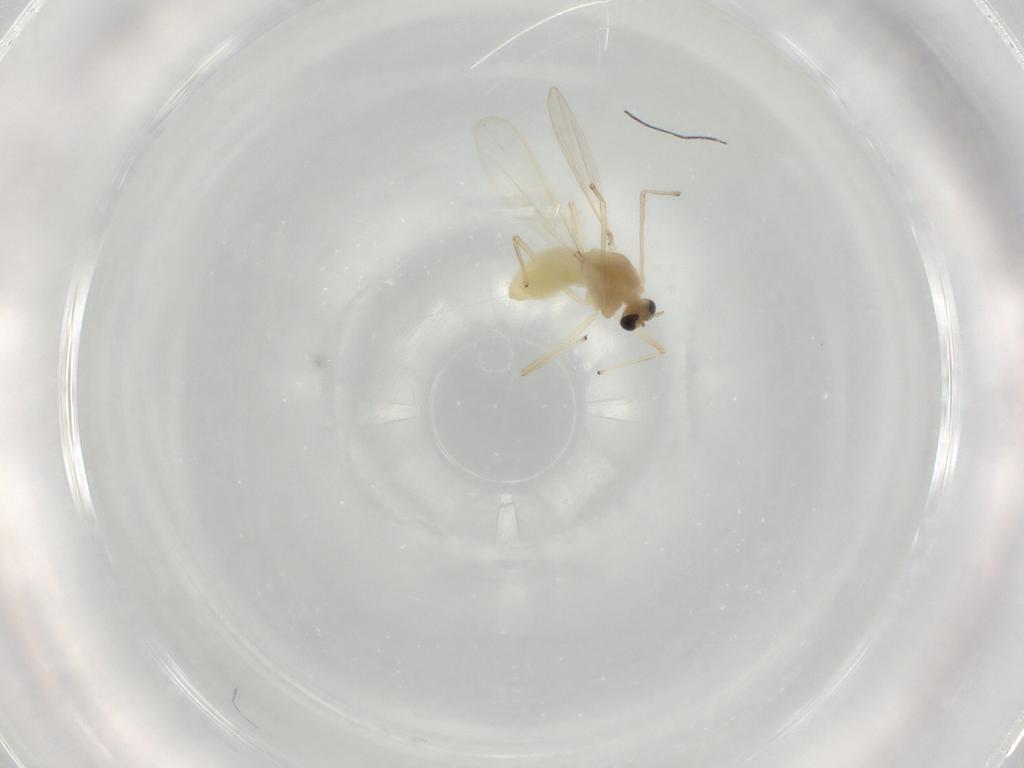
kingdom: Animalia
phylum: Arthropoda
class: Insecta
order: Diptera
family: Chironomidae
